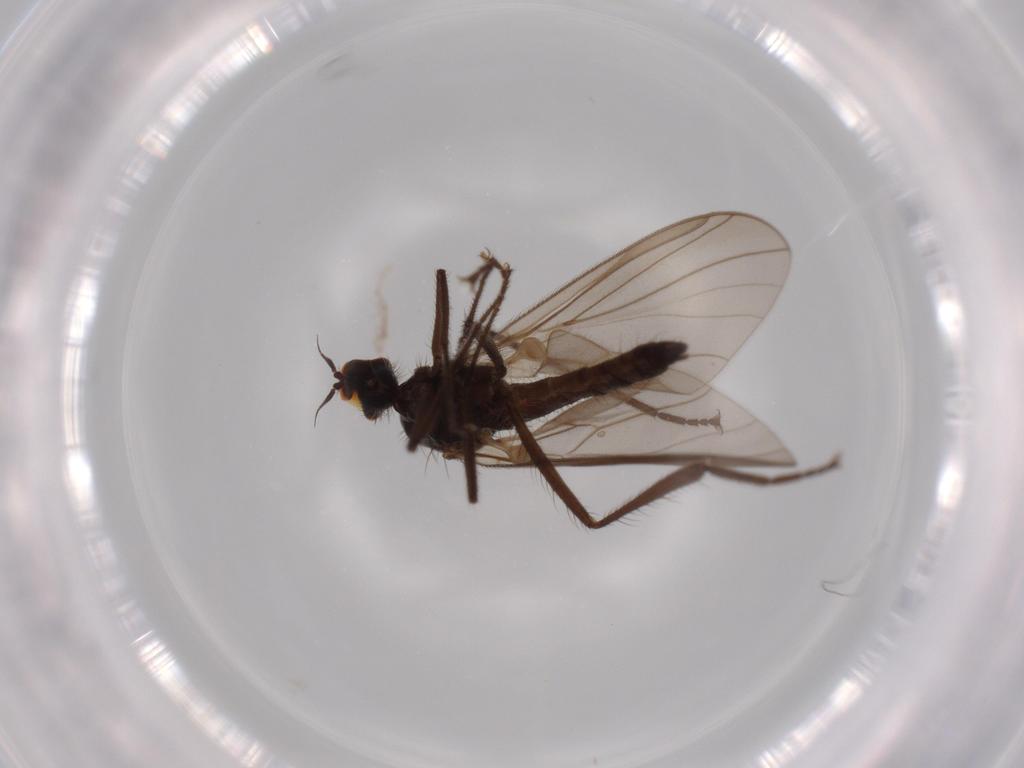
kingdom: Animalia
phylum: Arthropoda
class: Insecta
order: Diptera
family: Hybotidae
